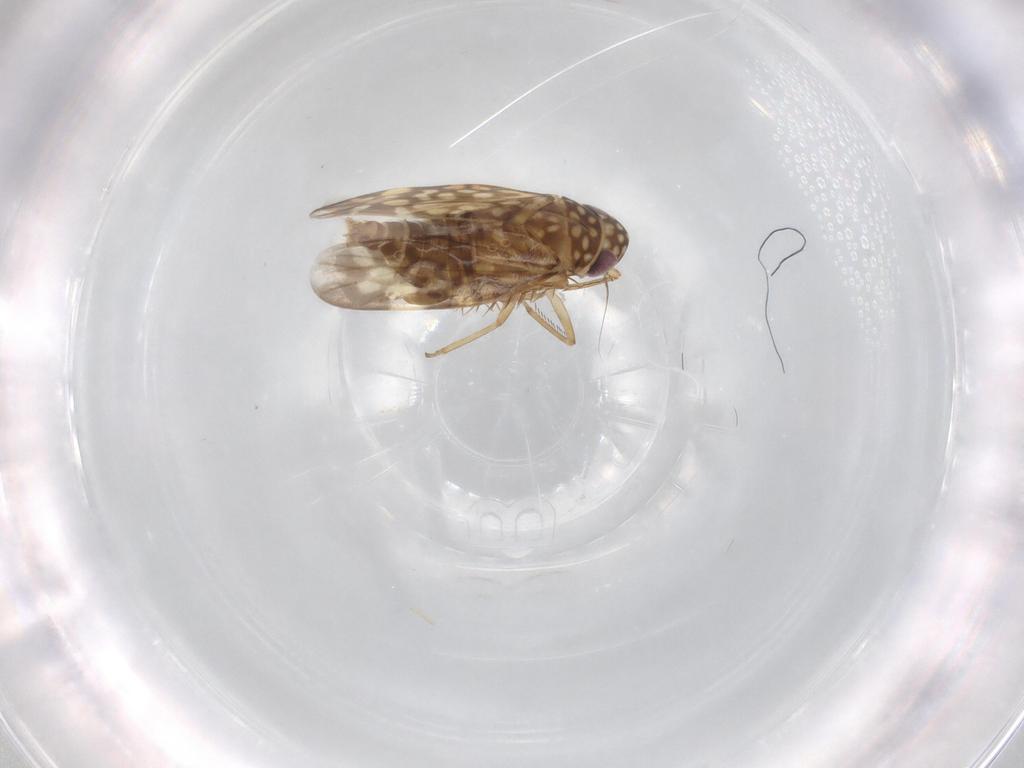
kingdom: Animalia
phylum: Arthropoda
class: Insecta
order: Hemiptera
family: Cicadellidae
